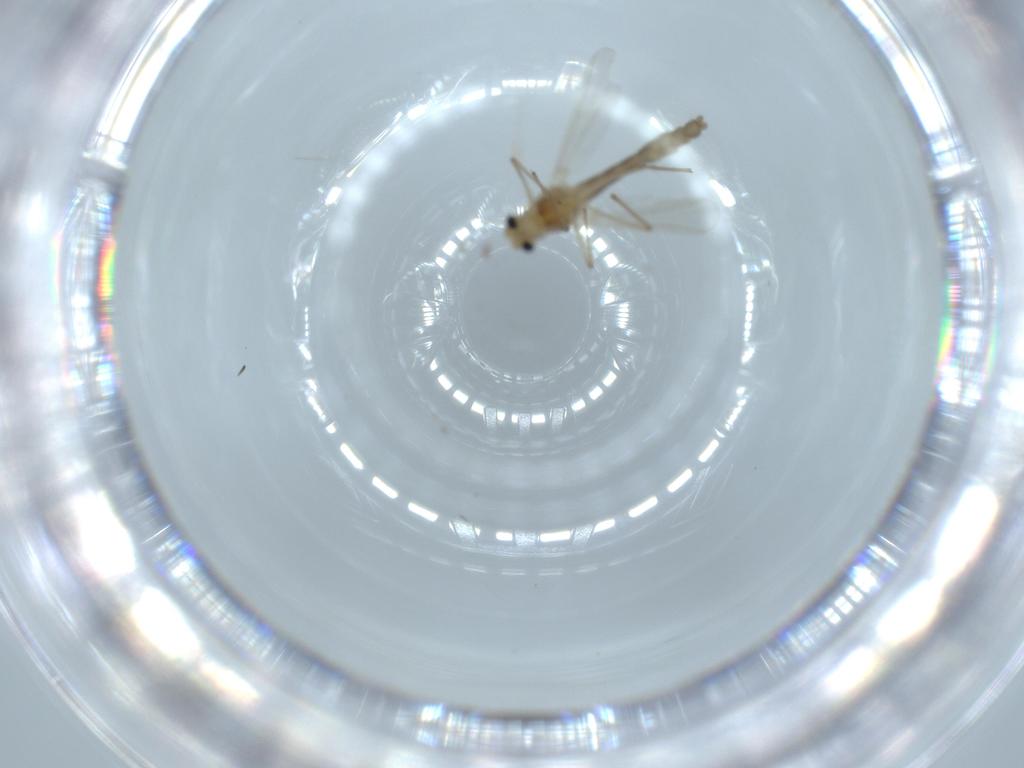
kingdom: Animalia
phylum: Arthropoda
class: Insecta
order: Diptera
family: Chironomidae
